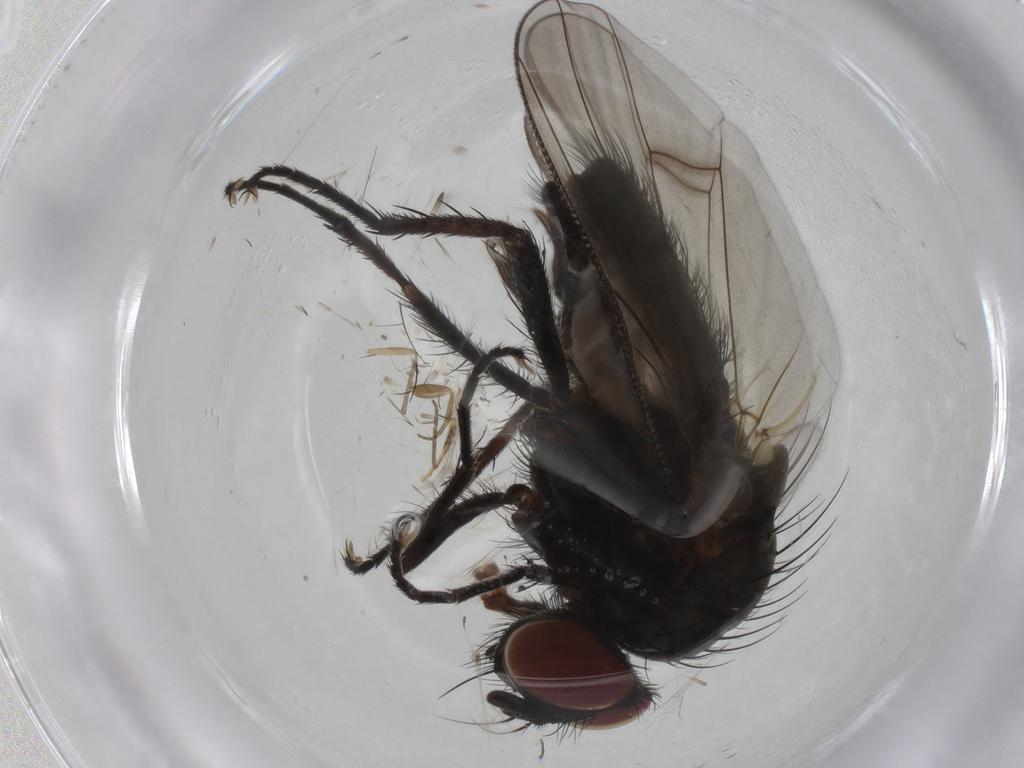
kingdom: Animalia
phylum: Arthropoda
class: Insecta
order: Diptera
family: Anthomyiidae
